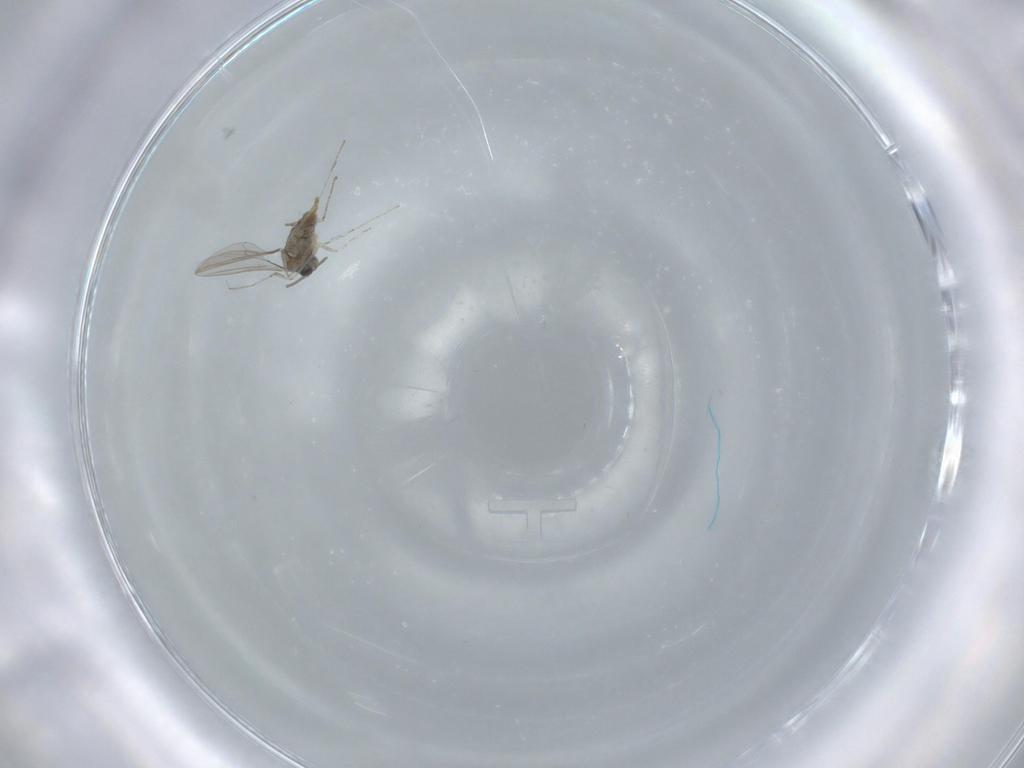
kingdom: Animalia
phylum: Arthropoda
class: Insecta
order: Diptera
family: Cecidomyiidae
